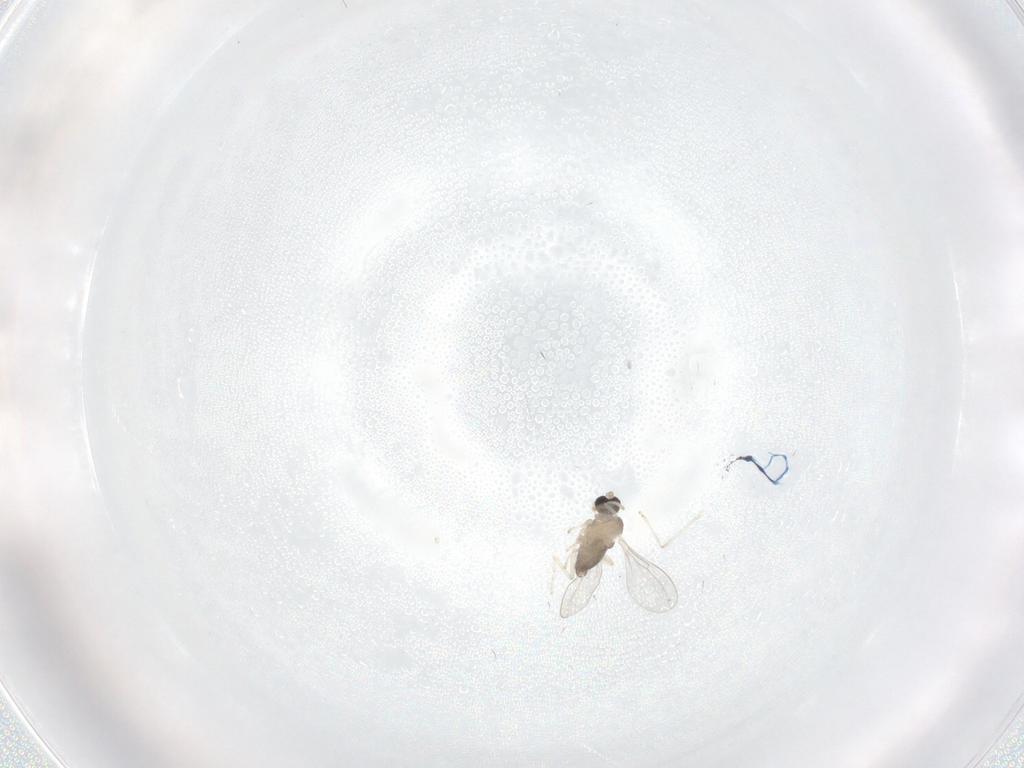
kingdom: Animalia
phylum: Arthropoda
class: Insecta
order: Diptera
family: Cecidomyiidae
